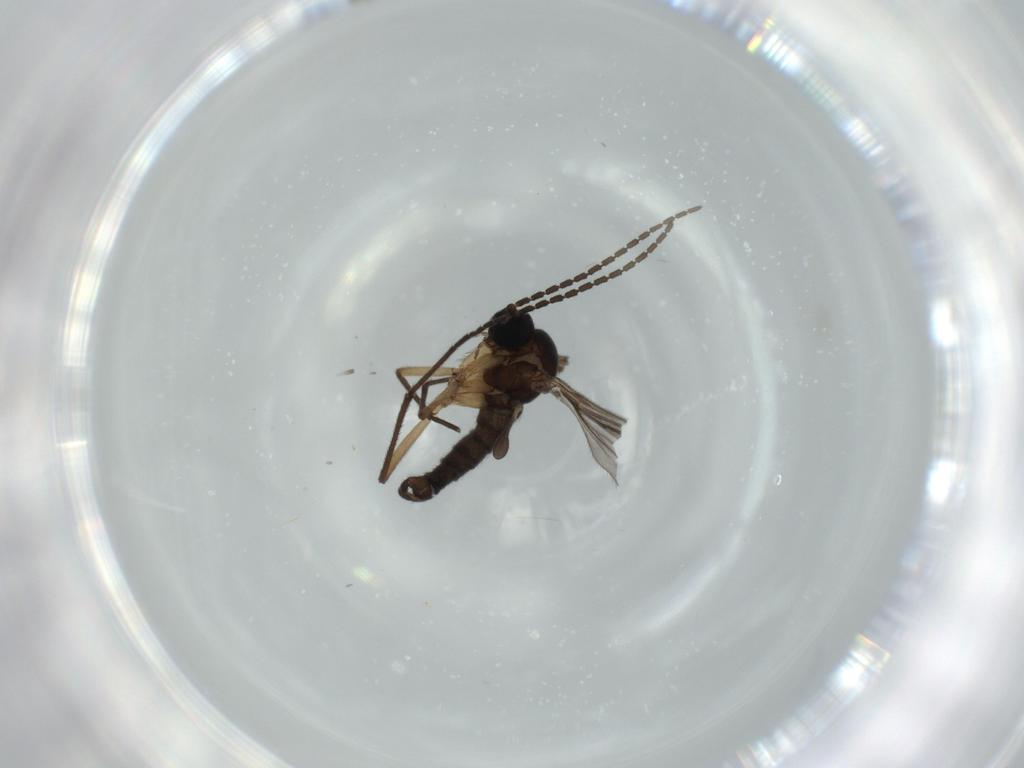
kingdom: Animalia
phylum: Arthropoda
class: Insecta
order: Diptera
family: Sciaridae
